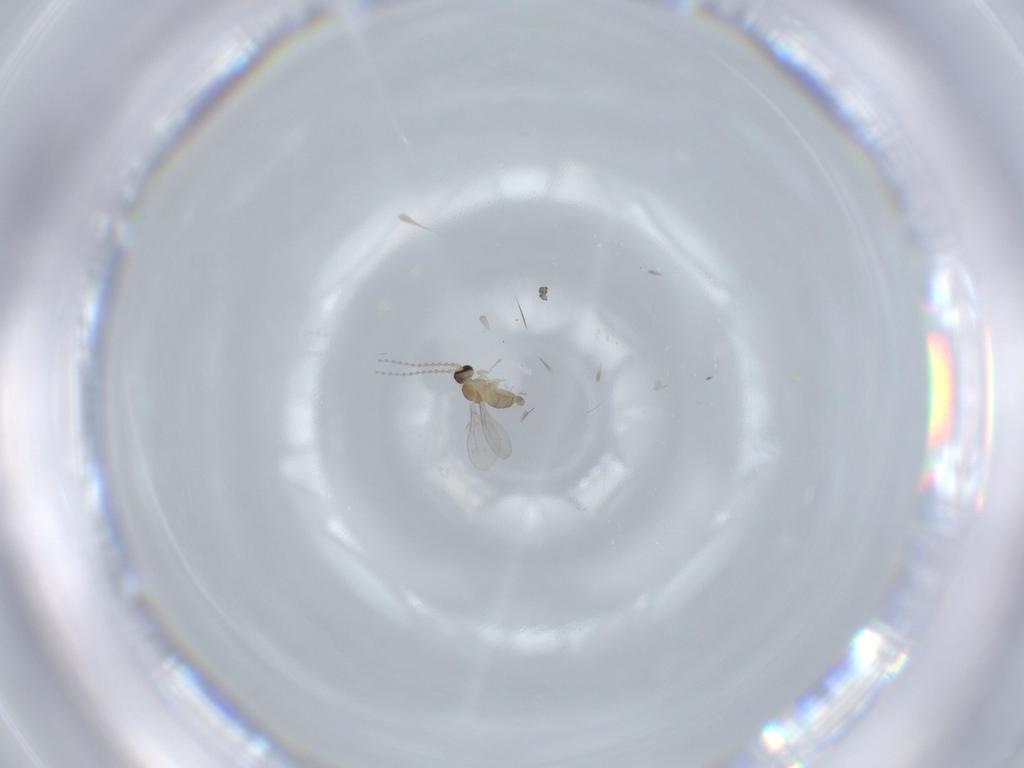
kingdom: Animalia
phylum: Arthropoda
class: Insecta
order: Diptera
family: Cecidomyiidae
